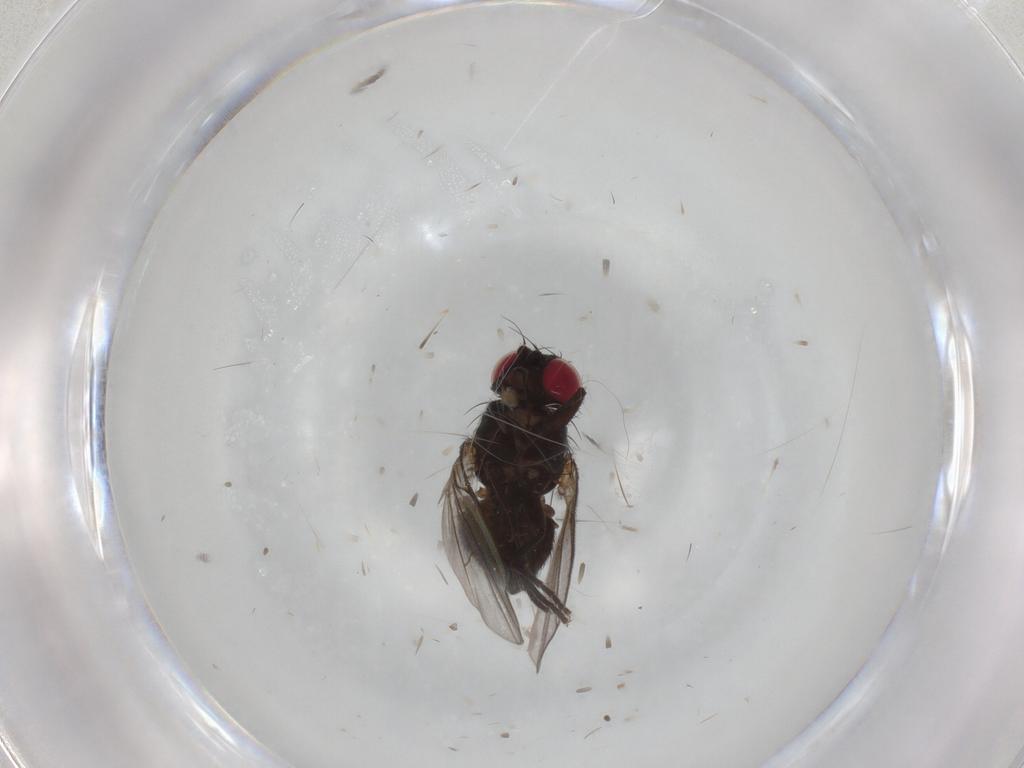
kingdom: Animalia
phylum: Arthropoda
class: Insecta
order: Diptera
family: Agromyzidae
